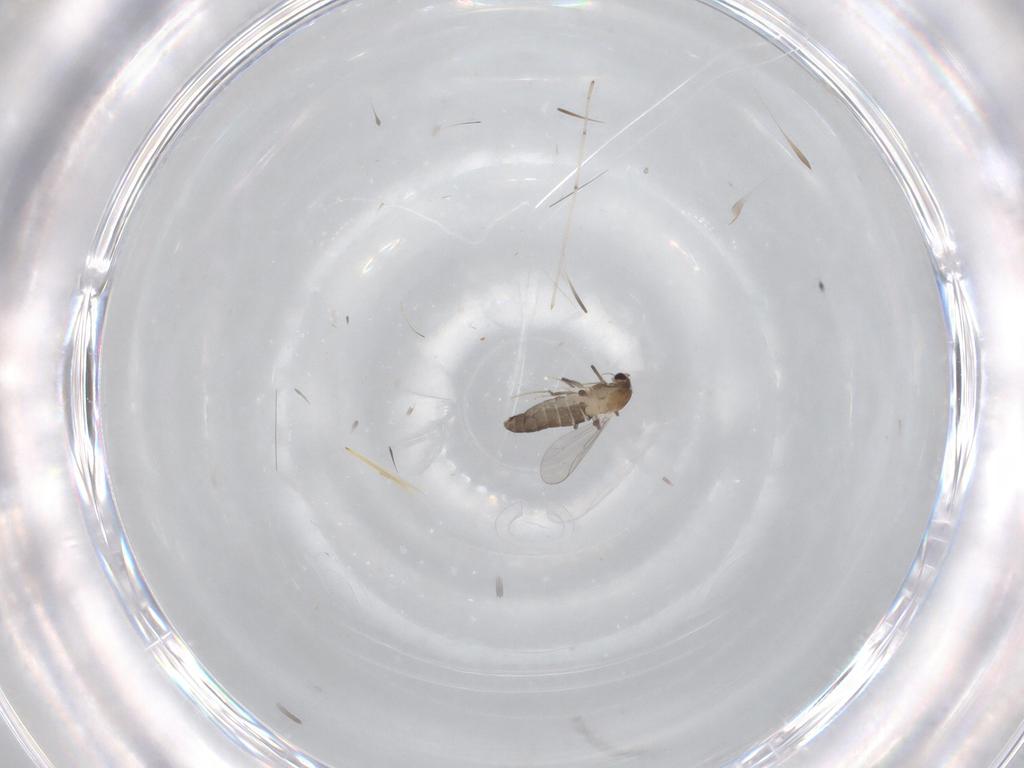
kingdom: Animalia
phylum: Arthropoda
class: Insecta
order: Diptera
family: Chironomidae
